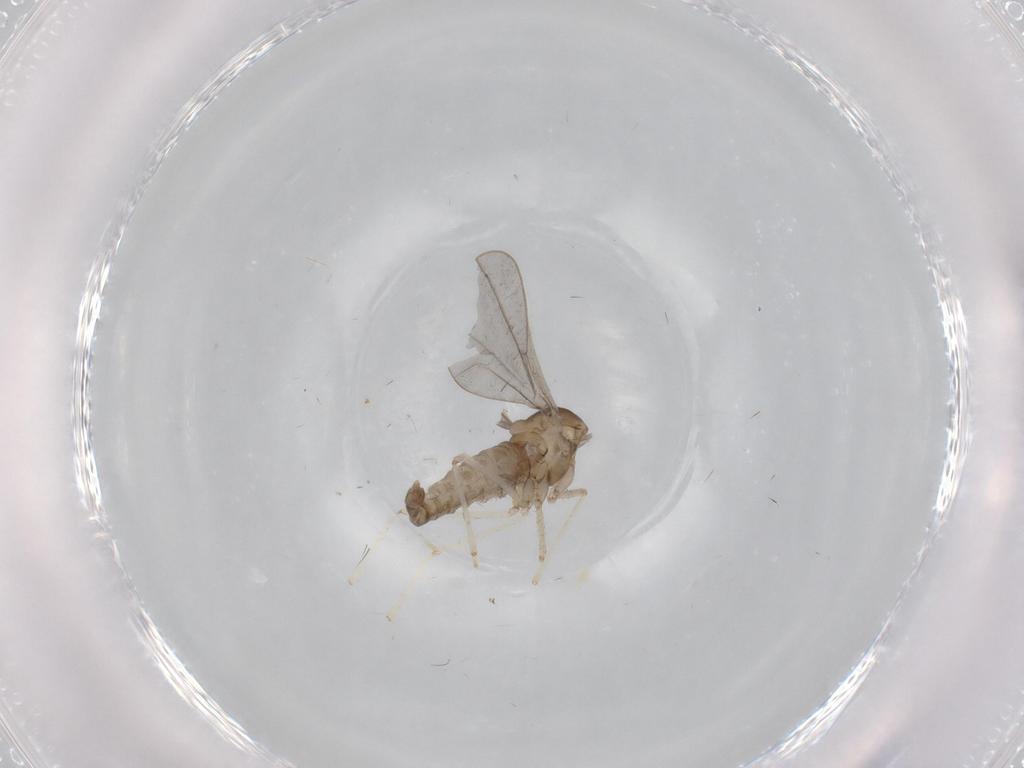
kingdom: Animalia
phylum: Arthropoda
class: Insecta
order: Diptera
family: Cecidomyiidae
